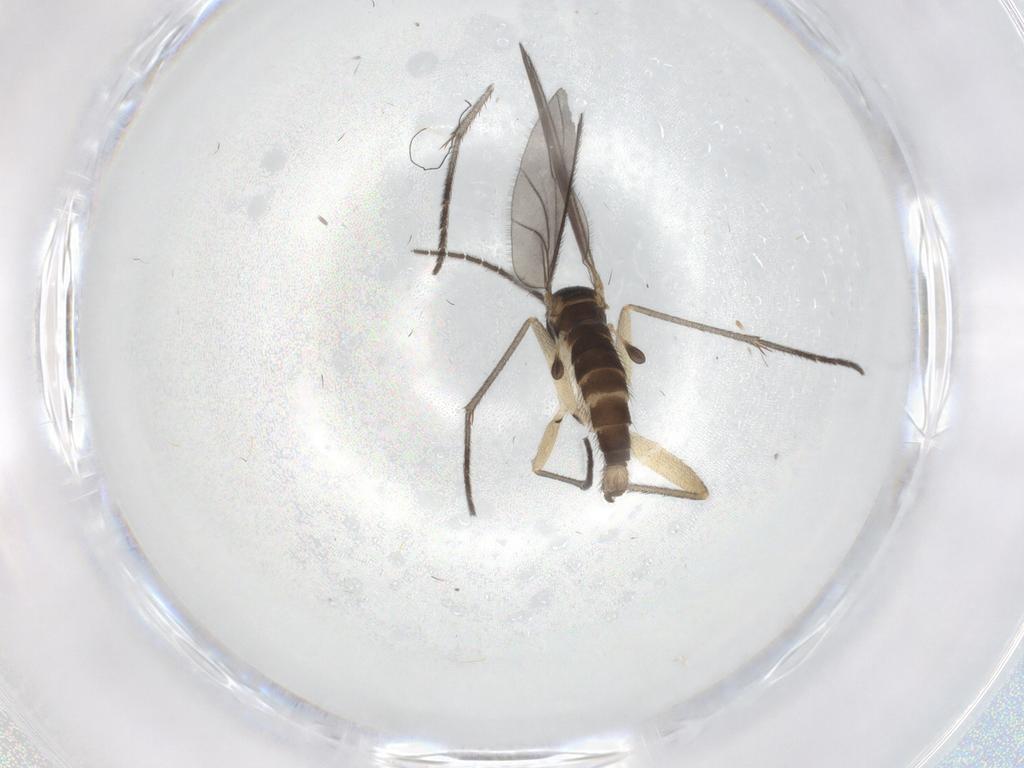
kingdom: Animalia
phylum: Arthropoda
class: Insecta
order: Diptera
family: Sciaridae
